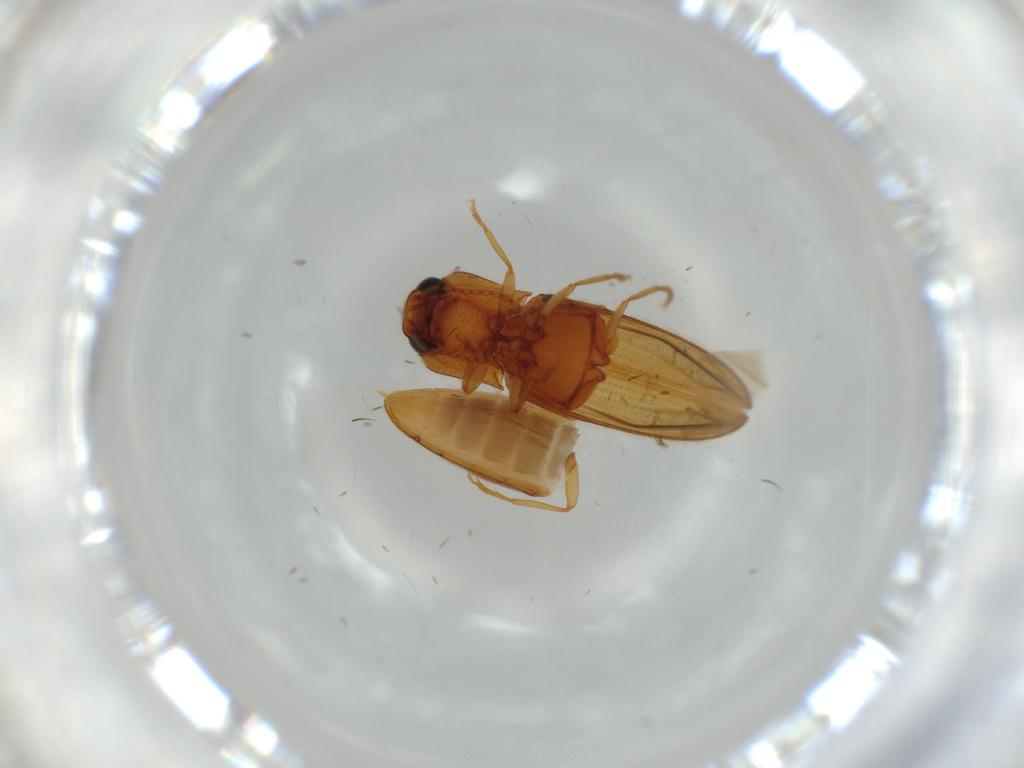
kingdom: Animalia
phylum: Arthropoda
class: Insecta
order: Coleoptera
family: Elateridae
